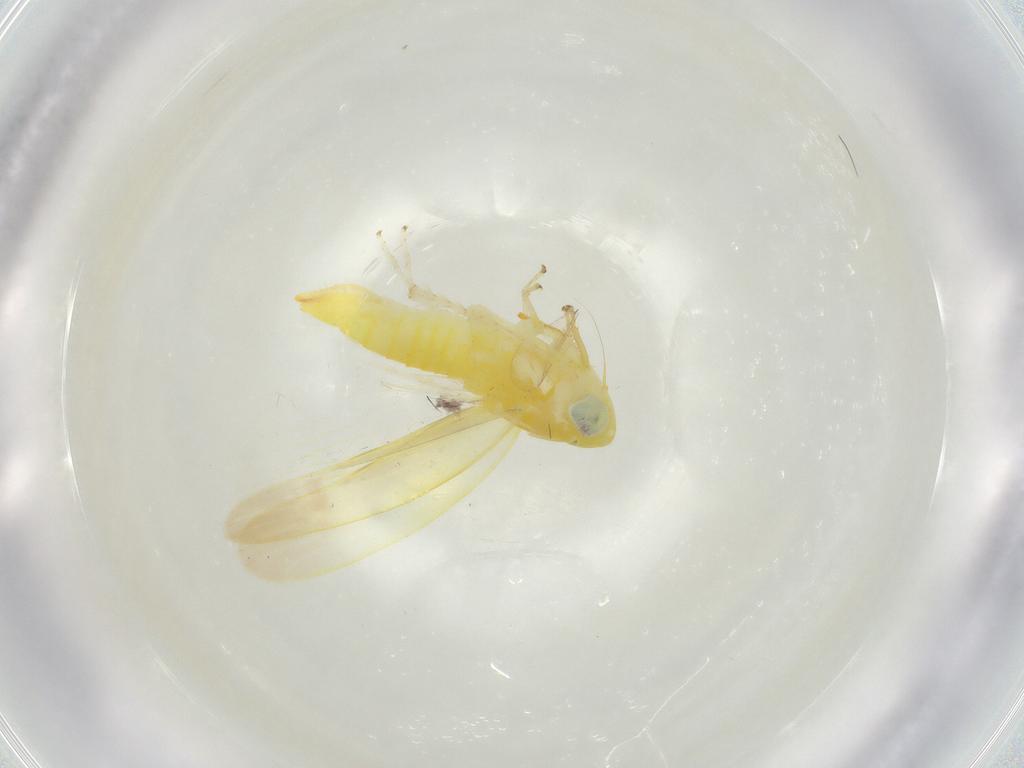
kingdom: Animalia
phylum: Arthropoda
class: Insecta
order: Hemiptera
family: Cicadellidae
